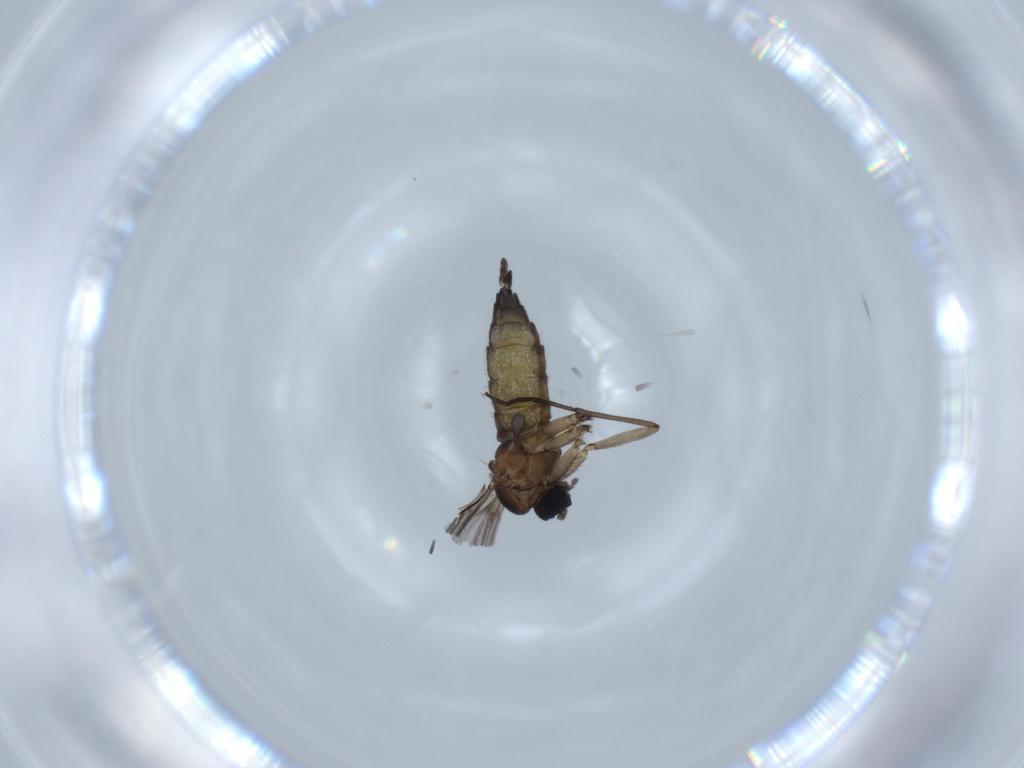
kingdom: Animalia
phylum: Arthropoda
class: Insecta
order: Diptera
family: Sciaridae
